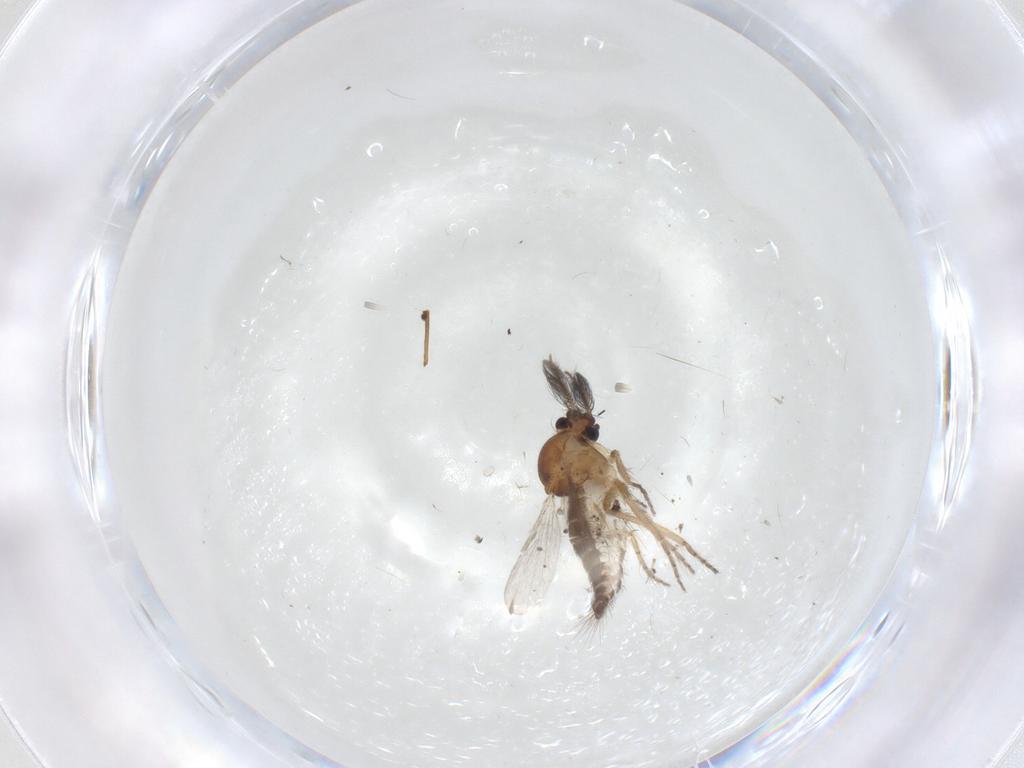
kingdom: Animalia
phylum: Arthropoda
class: Insecta
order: Diptera
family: Ceratopogonidae
